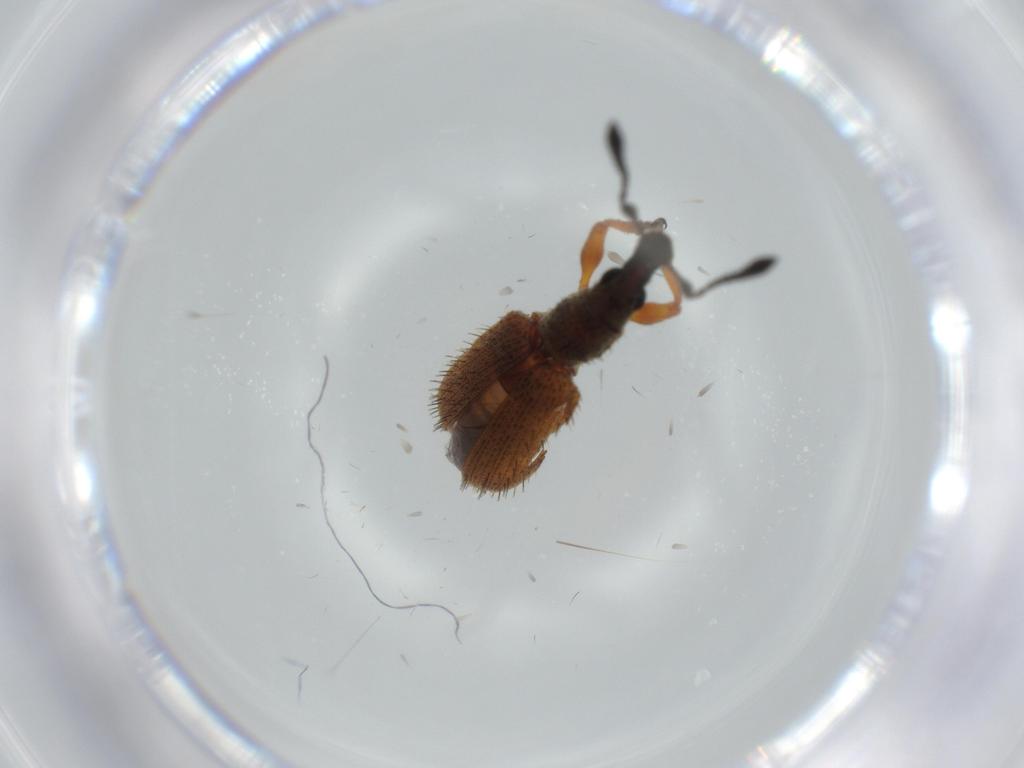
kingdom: Animalia
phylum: Arthropoda
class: Insecta
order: Coleoptera
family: Curculionidae
